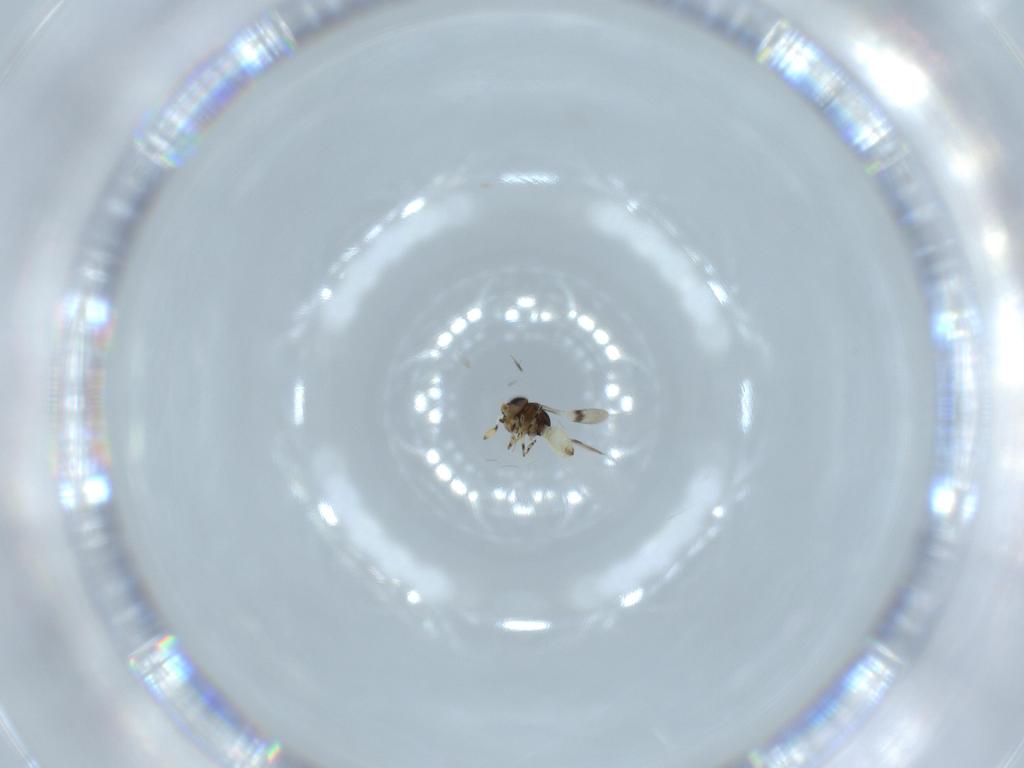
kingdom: Animalia
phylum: Arthropoda
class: Insecta
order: Hymenoptera
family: Scelionidae
